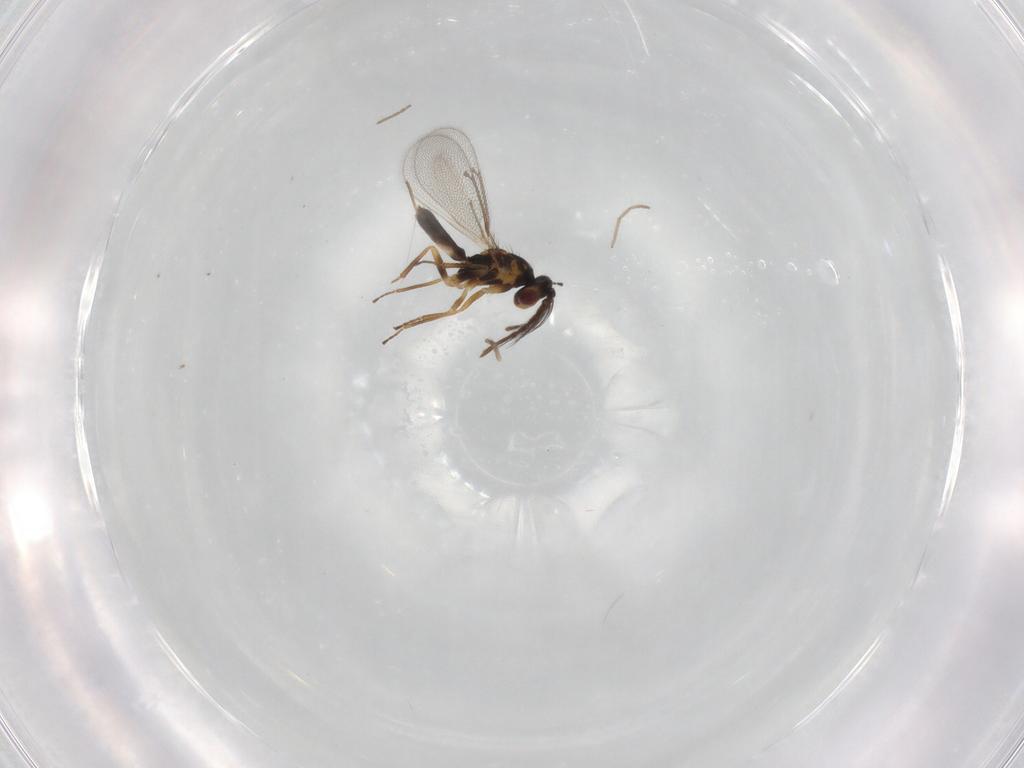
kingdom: Animalia
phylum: Arthropoda
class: Insecta
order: Hymenoptera
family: Eulophidae
